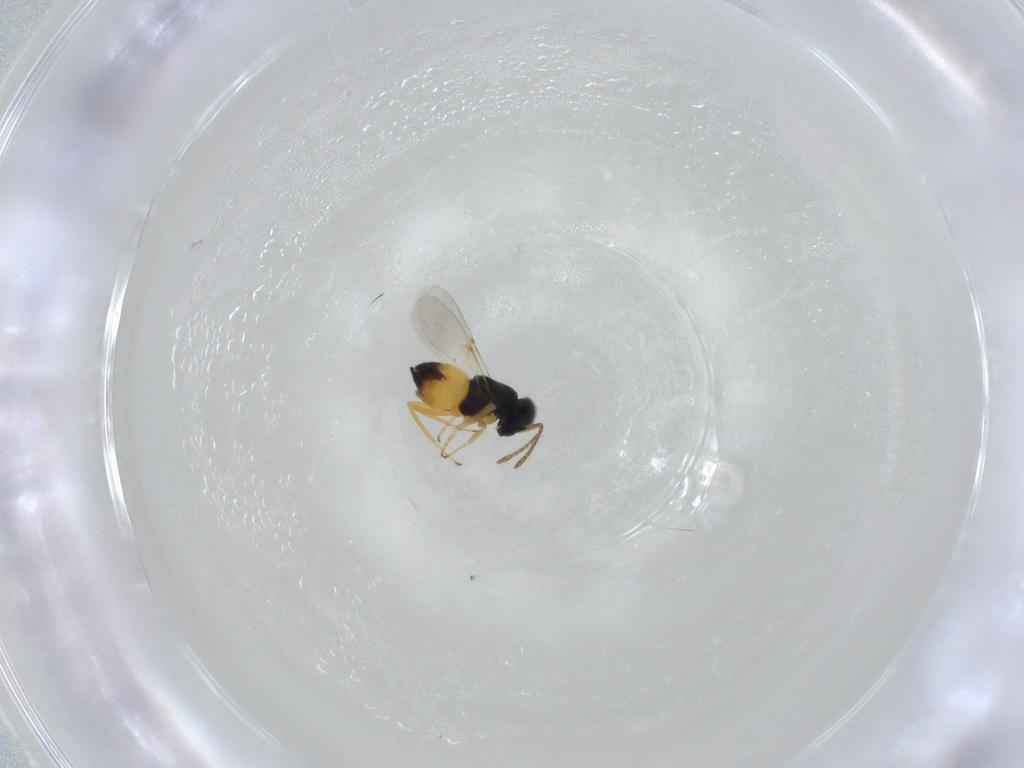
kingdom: Animalia
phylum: Arthropoda
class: Insecta
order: Hymenoptera
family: Encyrtidae
